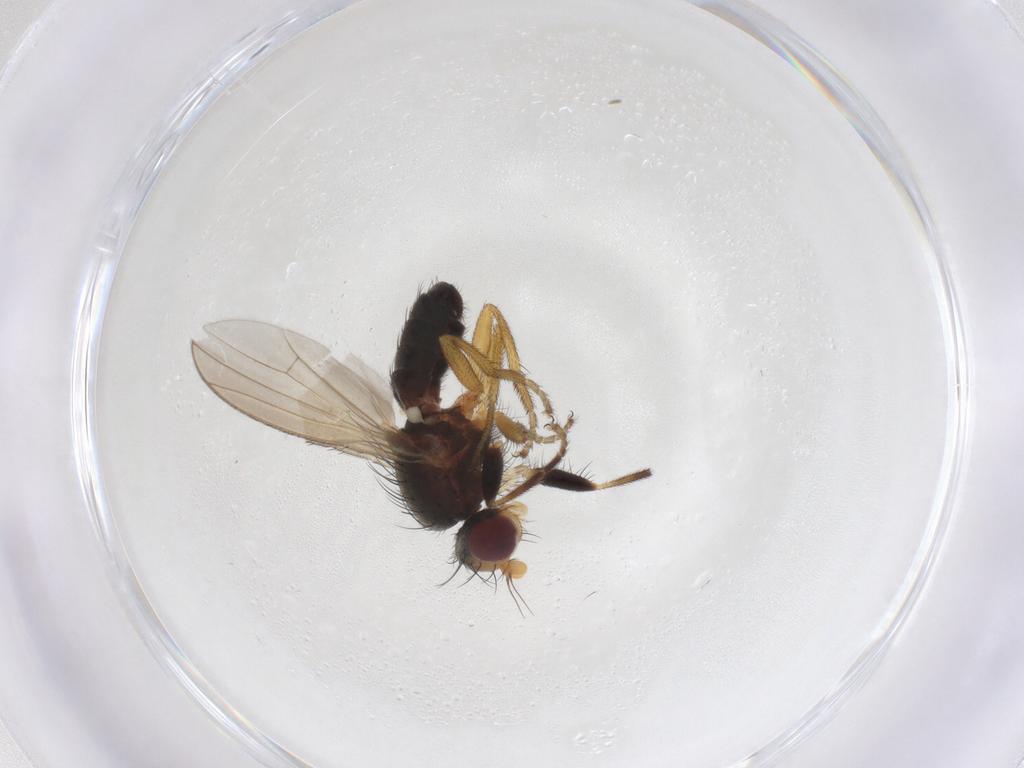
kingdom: Animalia
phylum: Arthropoda
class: Insecta
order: Diptera
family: Heleomyzidae
